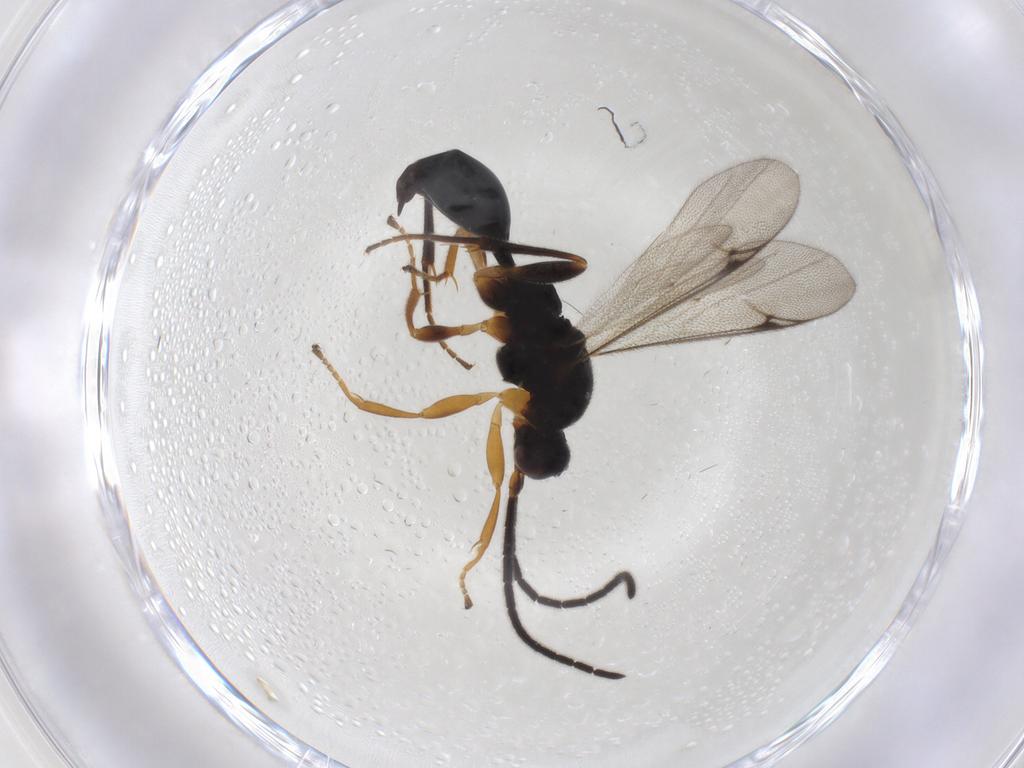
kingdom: Animalia
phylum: Arthropoda
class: Insecta
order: Hymenoptera
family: Proctotrupidae
